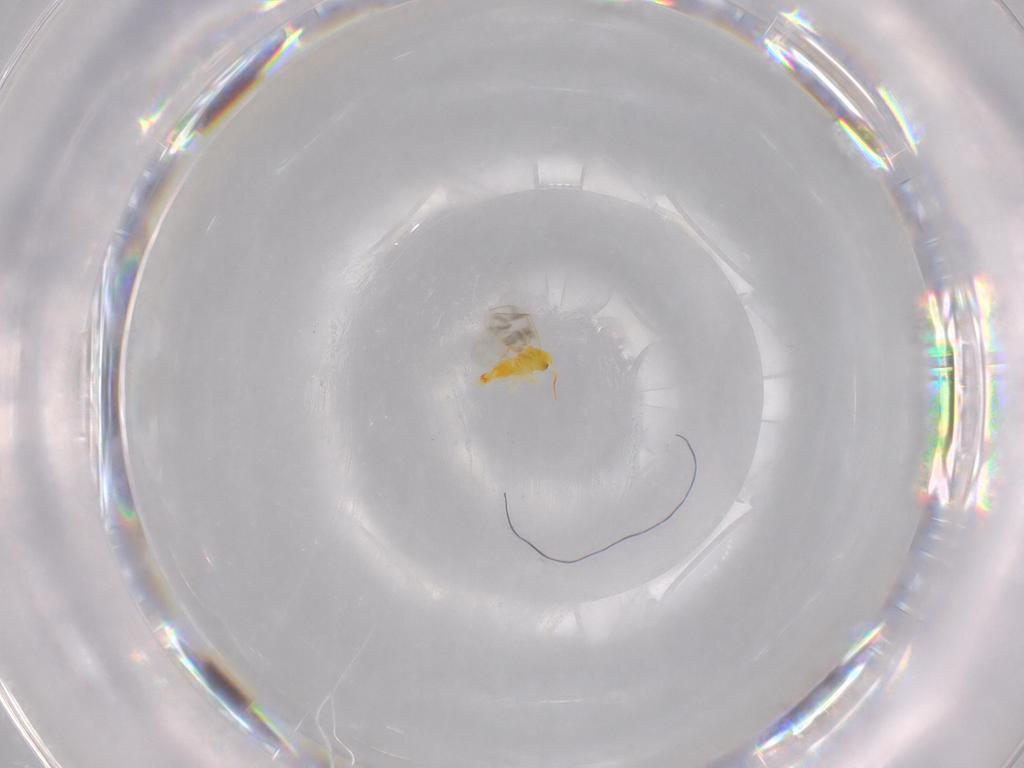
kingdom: Animalia
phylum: Arthropoda
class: Insecta
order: Hemiptera
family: Aleyrodidae
